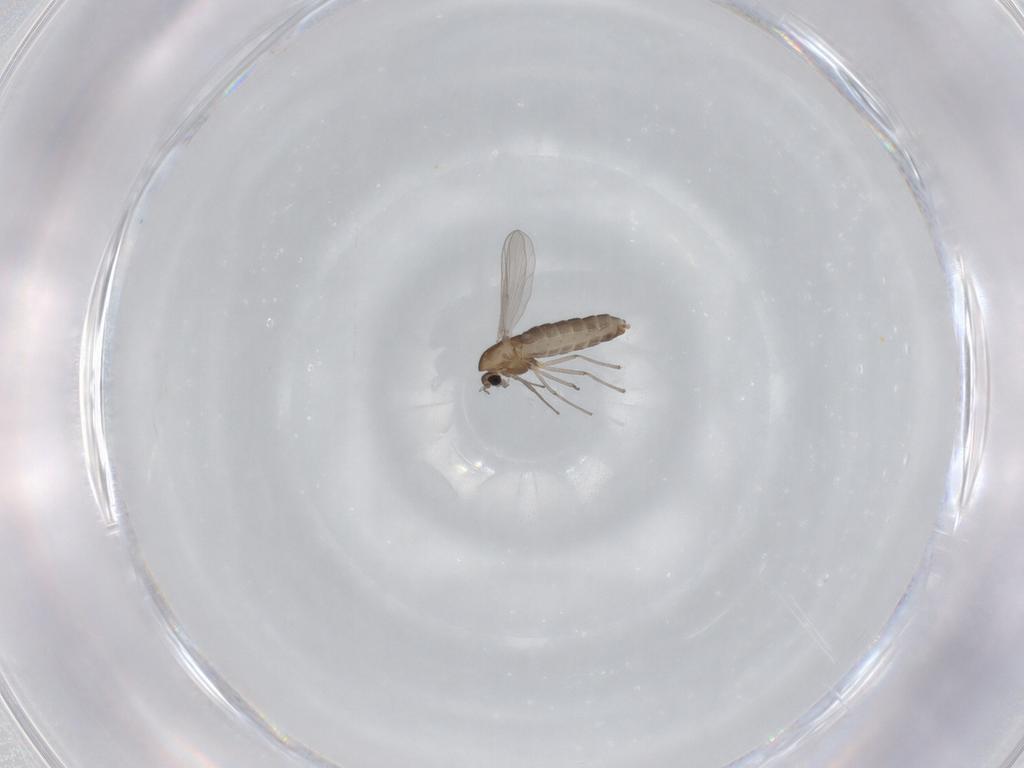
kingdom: Animalia
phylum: Arthropoda
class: Insecta
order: Diptera
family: Chironomidae
